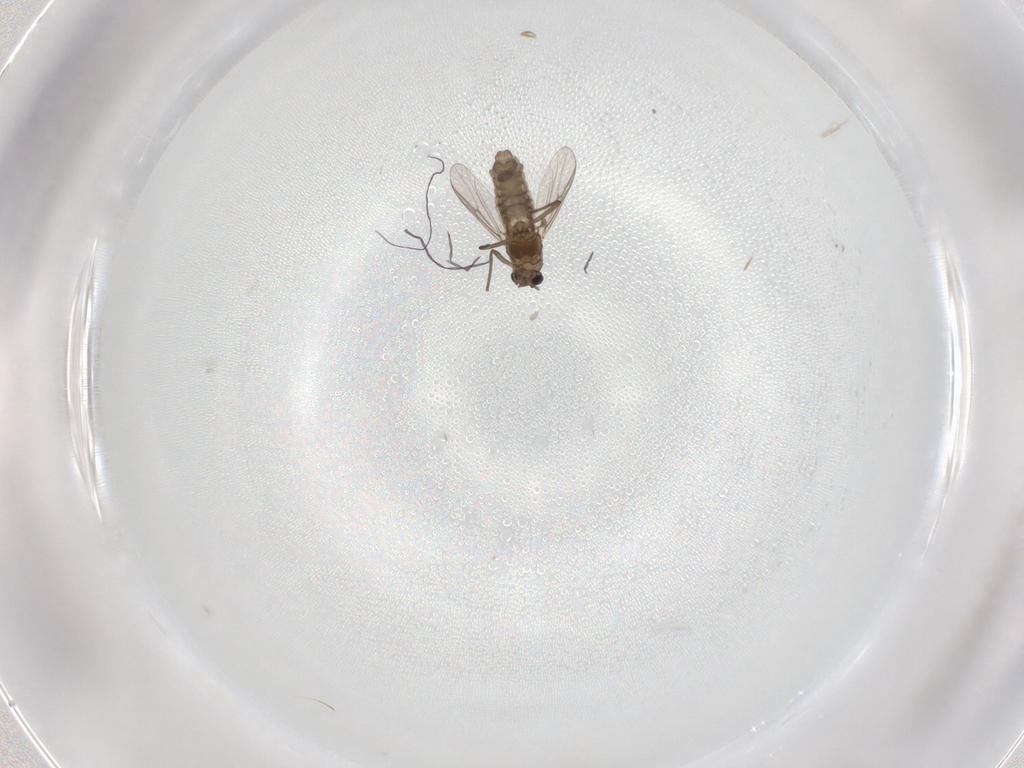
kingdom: Animalia
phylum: Arthropoda
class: Insecta
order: Diptera
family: Chironomidae
